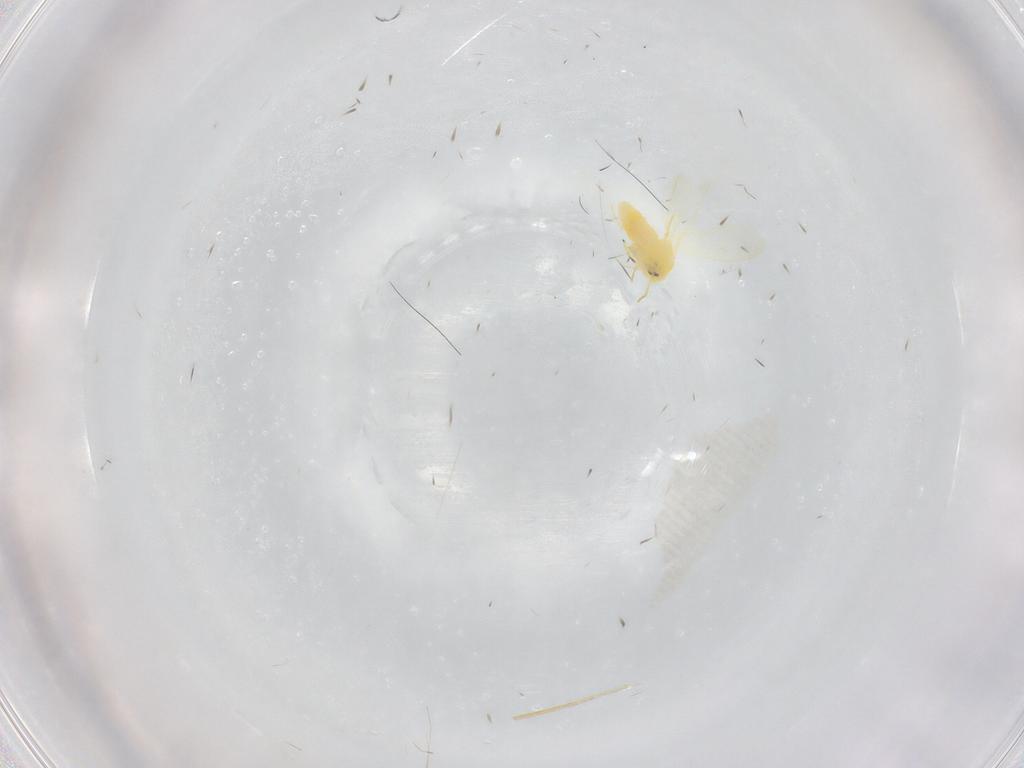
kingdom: Animalia
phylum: Arthropoda
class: Insecta
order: Hemiptera
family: Aleyrodidae
